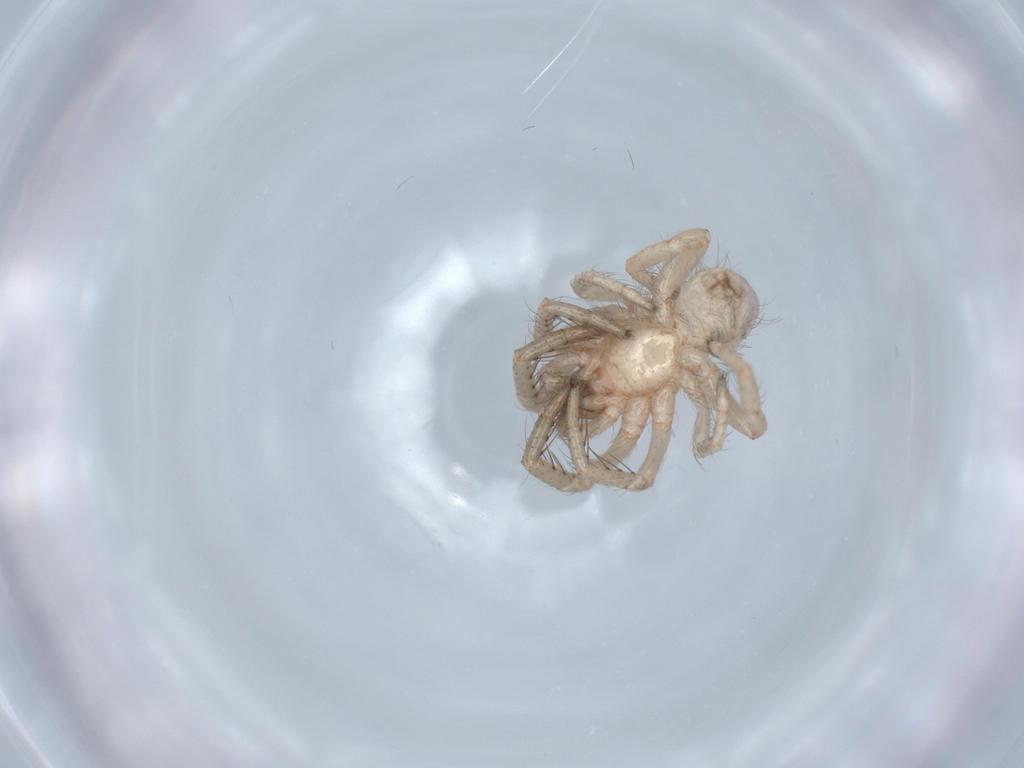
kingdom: Animalia
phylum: Arthropoda
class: Arachnida
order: Araneae
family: Segestriidae
